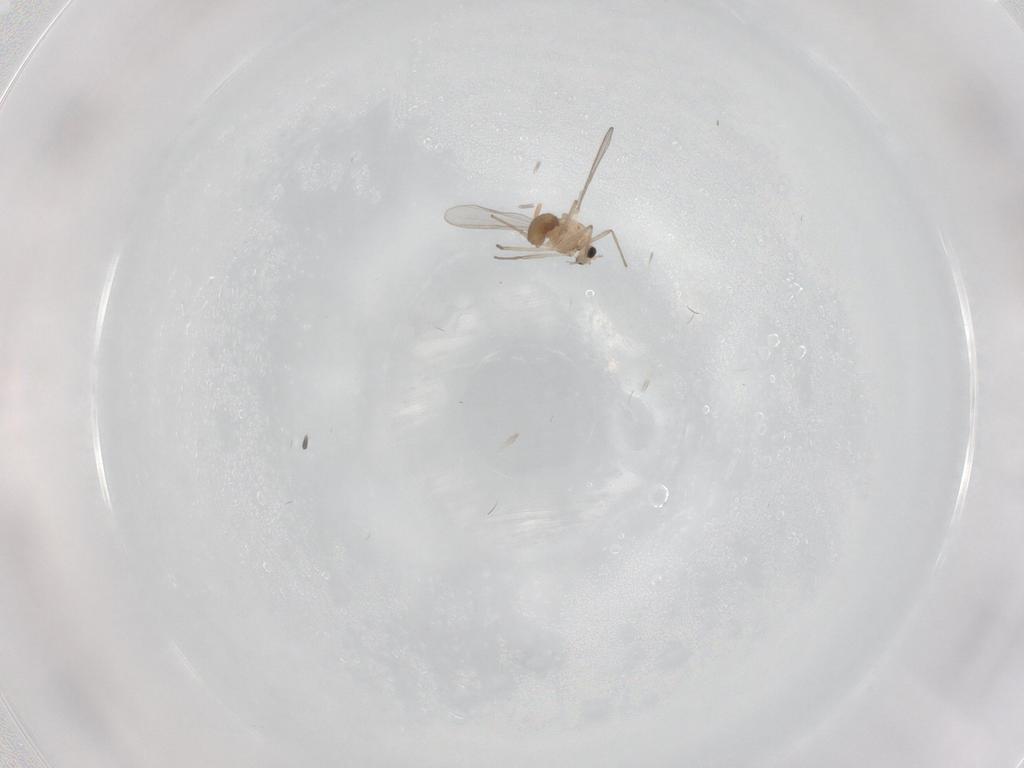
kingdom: Animalia
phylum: Arthropoda
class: Insecta
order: Diptera
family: Chironomidae
